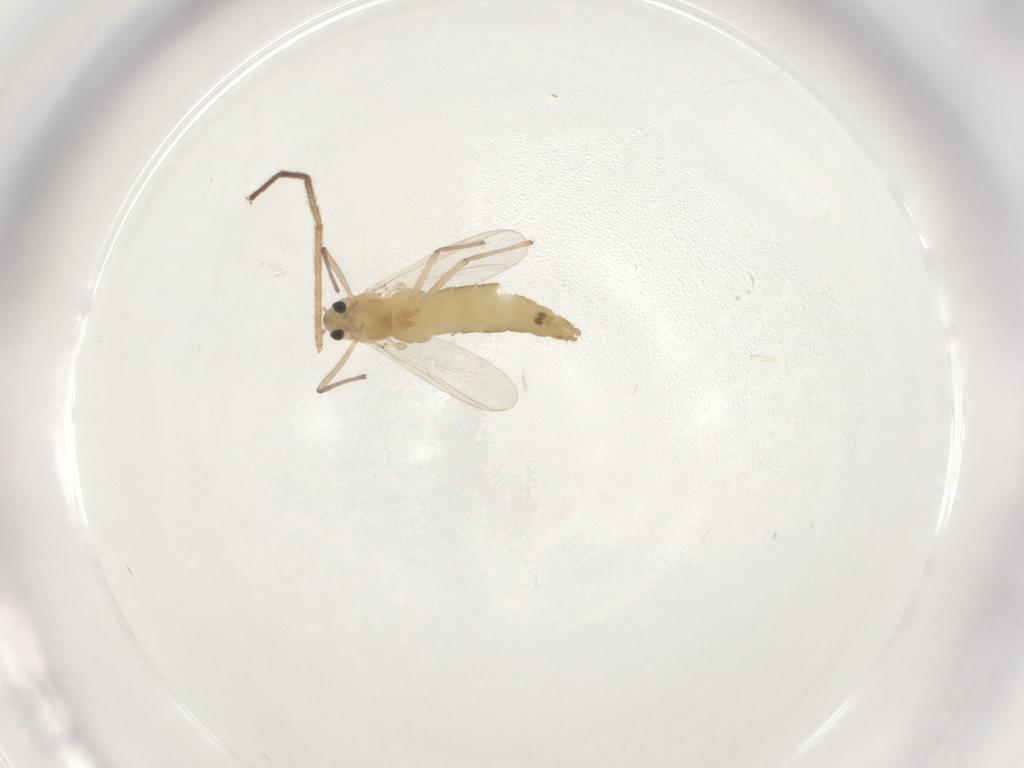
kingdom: Animalia
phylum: Arthropoda
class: Insecta
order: Diptera
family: Chironomidae
